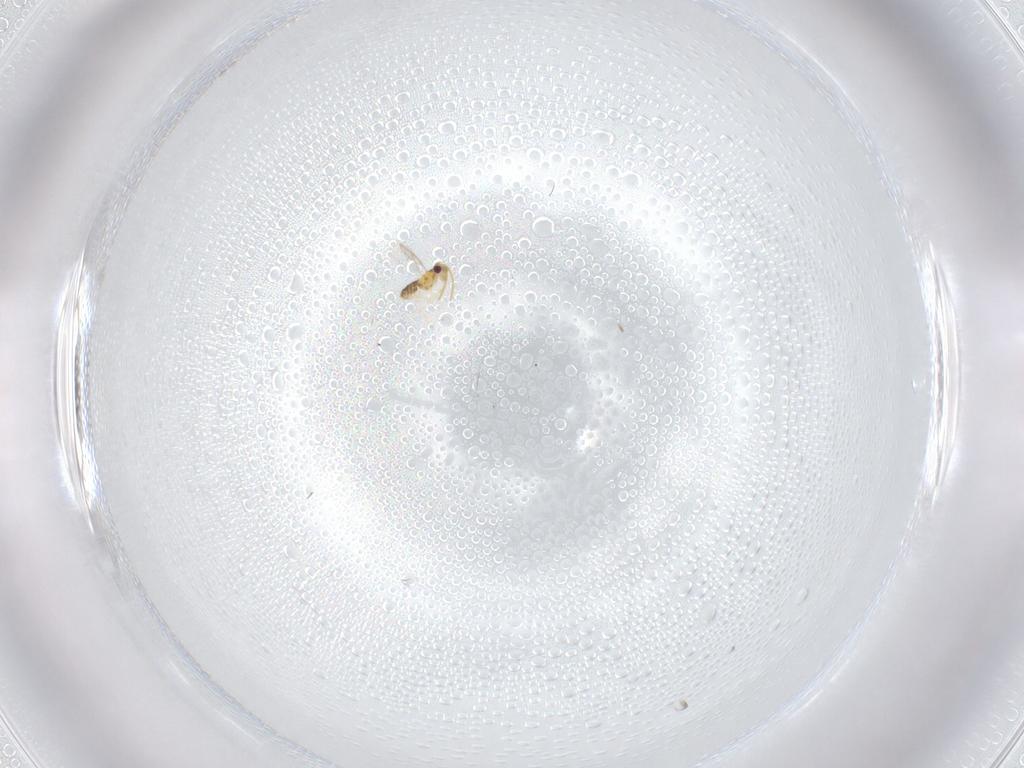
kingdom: Animalia
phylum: Arthropoda
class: Insecta
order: Hymenoptera
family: Aphelinidae
